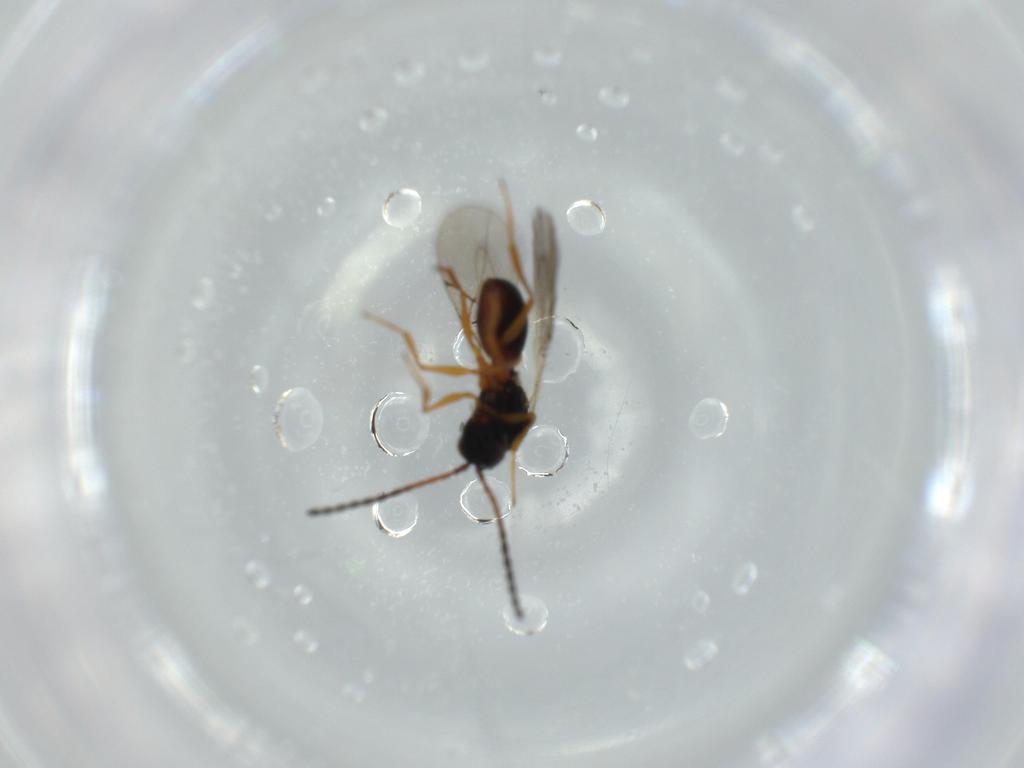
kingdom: Animalia
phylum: Arthropoda
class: Insecta
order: Hymenoptera
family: Figitidae
